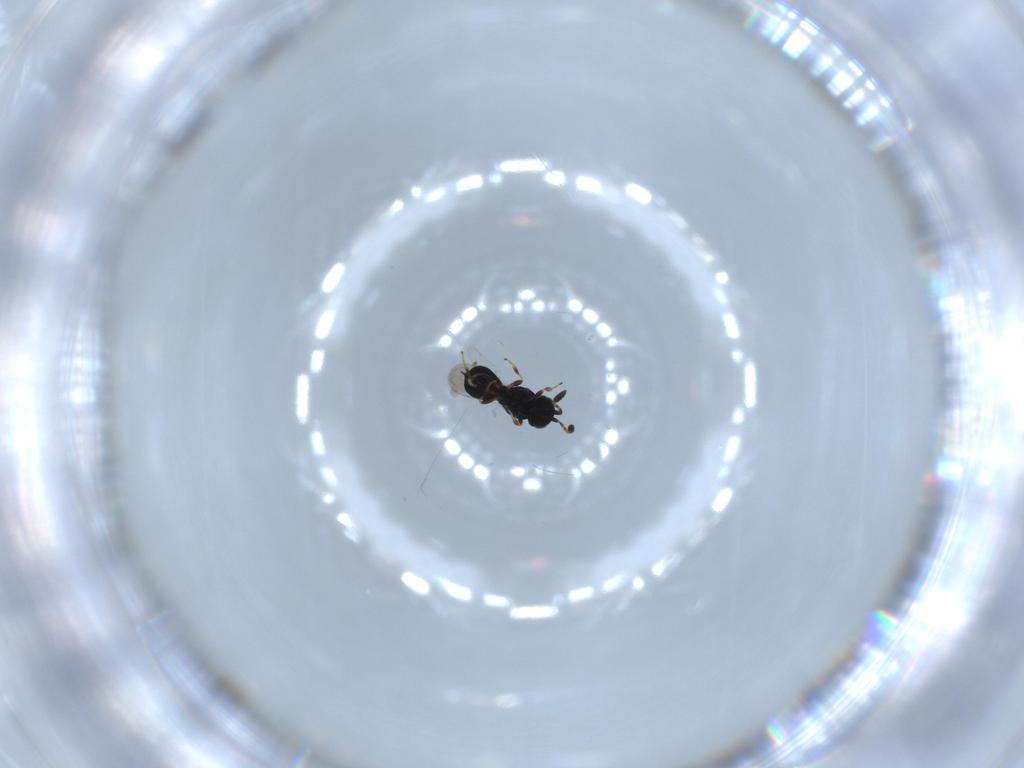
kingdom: Animalia
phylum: Arthropoda
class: Insecta
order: Hymenoptera
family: Scelionidae
